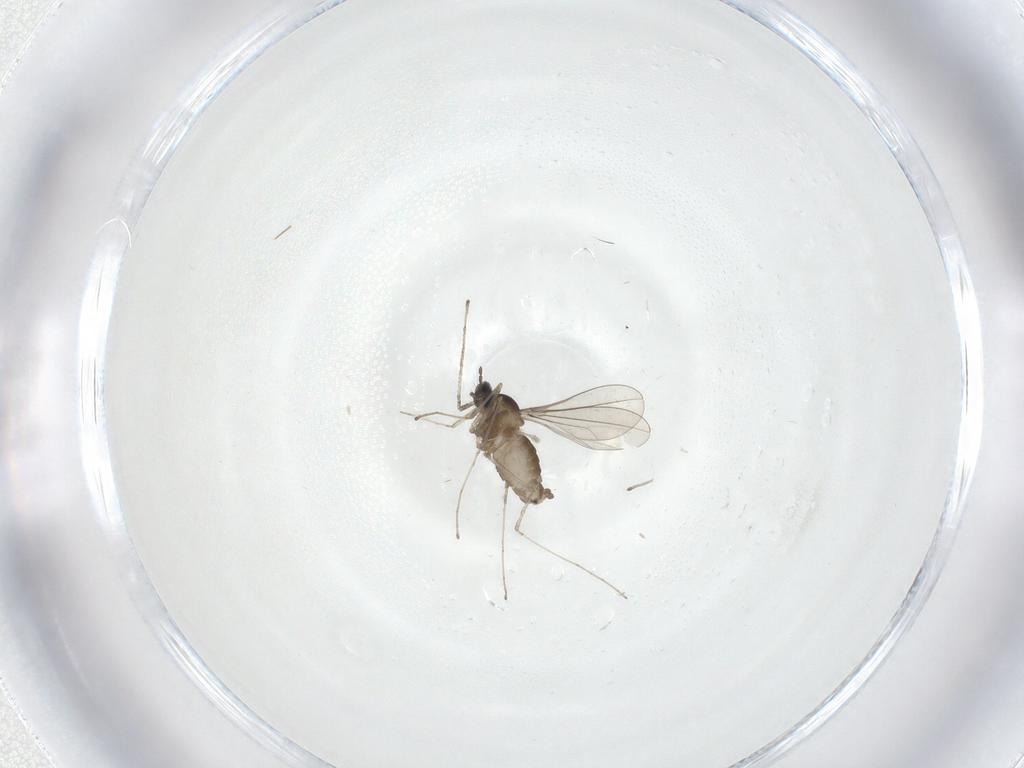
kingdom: Animalia
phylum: Arthropoda
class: Insecta
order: Diptera
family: Cecidomyiidae
